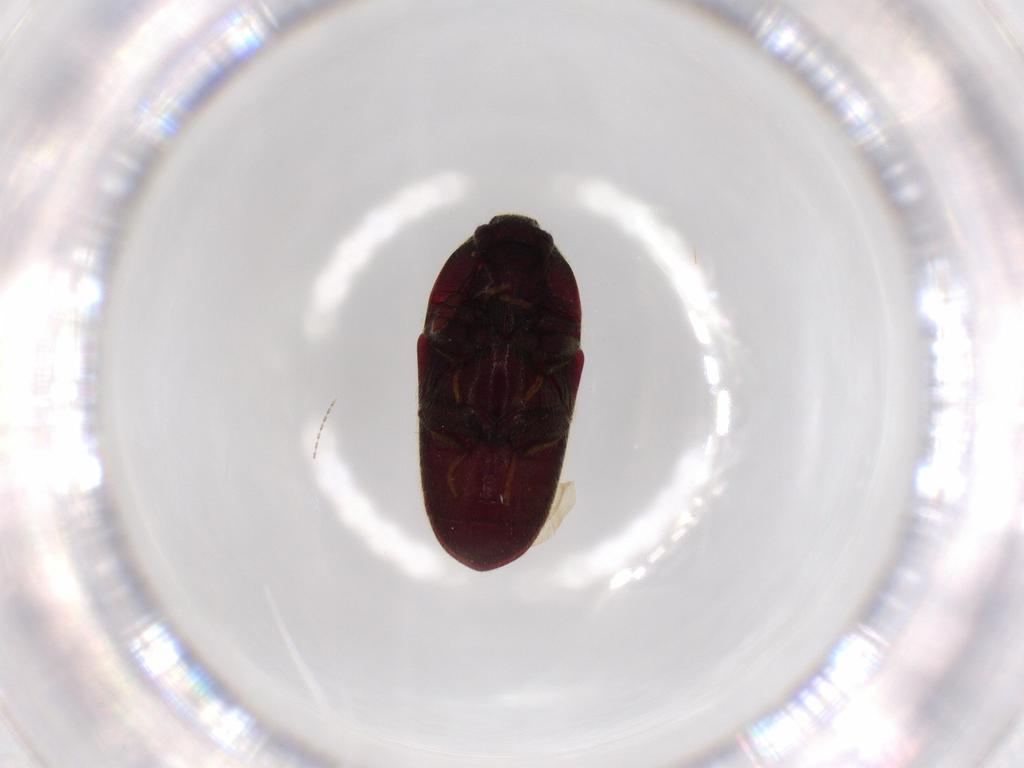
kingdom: Animalia
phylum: Arthropoda
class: Insecta
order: Coleoptera
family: Throscidae
